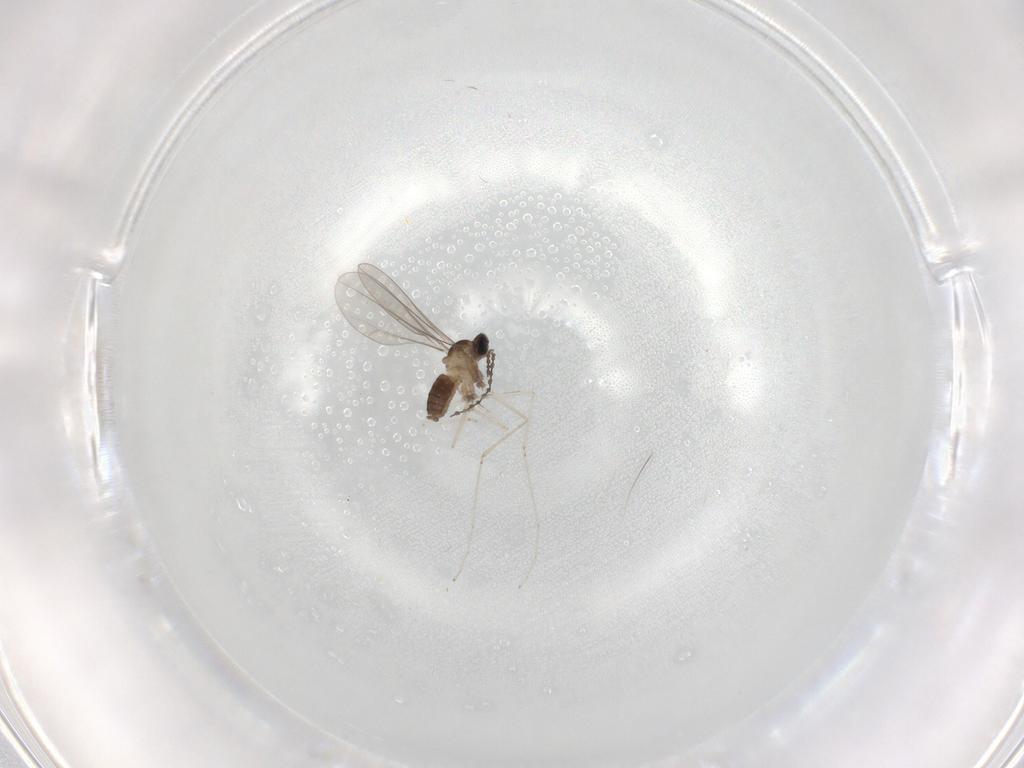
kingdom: Animalia
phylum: Arthropoda
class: Insecta
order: Diptera
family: Cecidomyiidae
